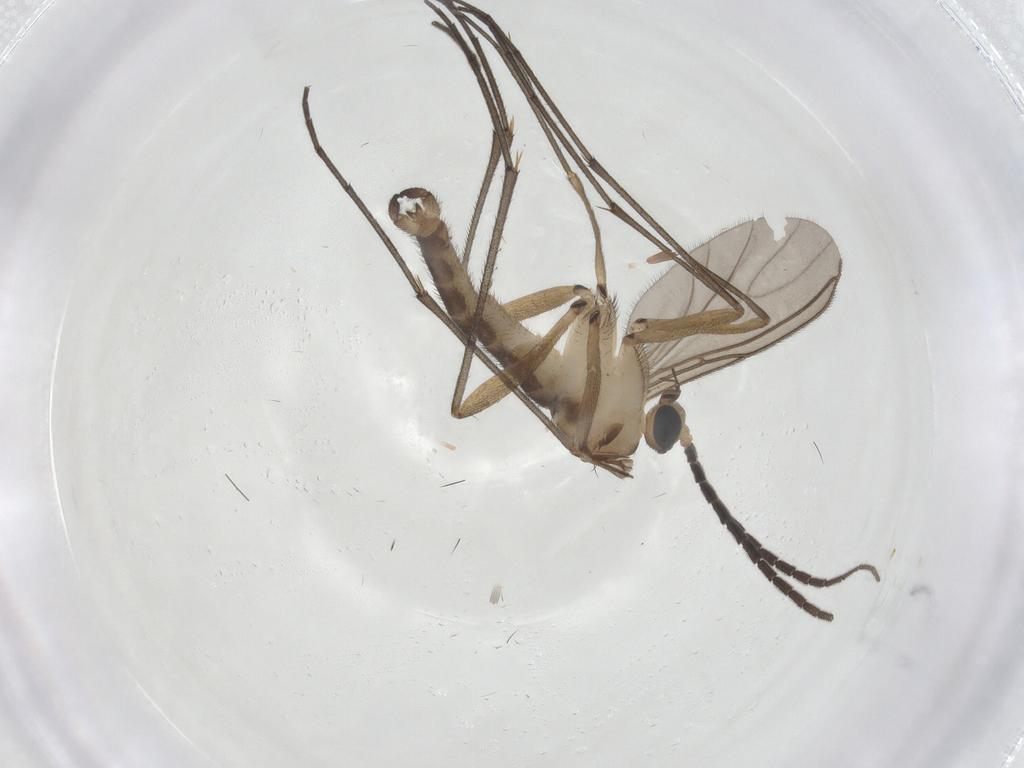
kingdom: Animalia
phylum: Arthropoda
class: Insecta
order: Diptera
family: Sciaridae
